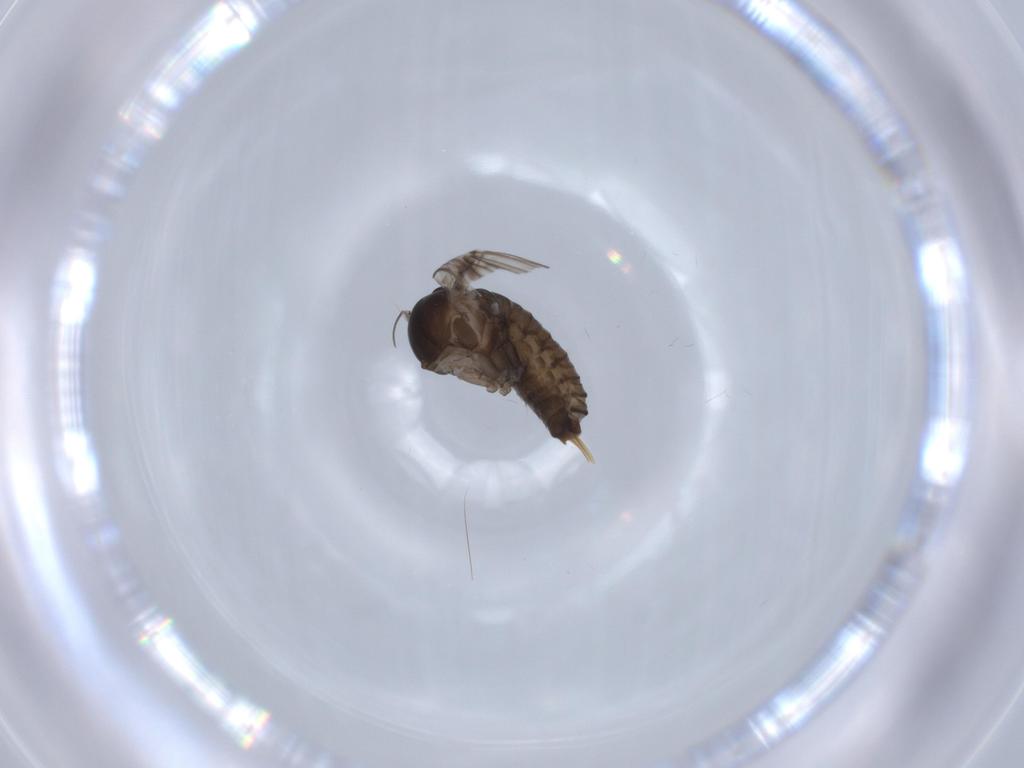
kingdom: Animalia
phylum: Arthropoda
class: Insecta
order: Diptera
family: Psychodidae
